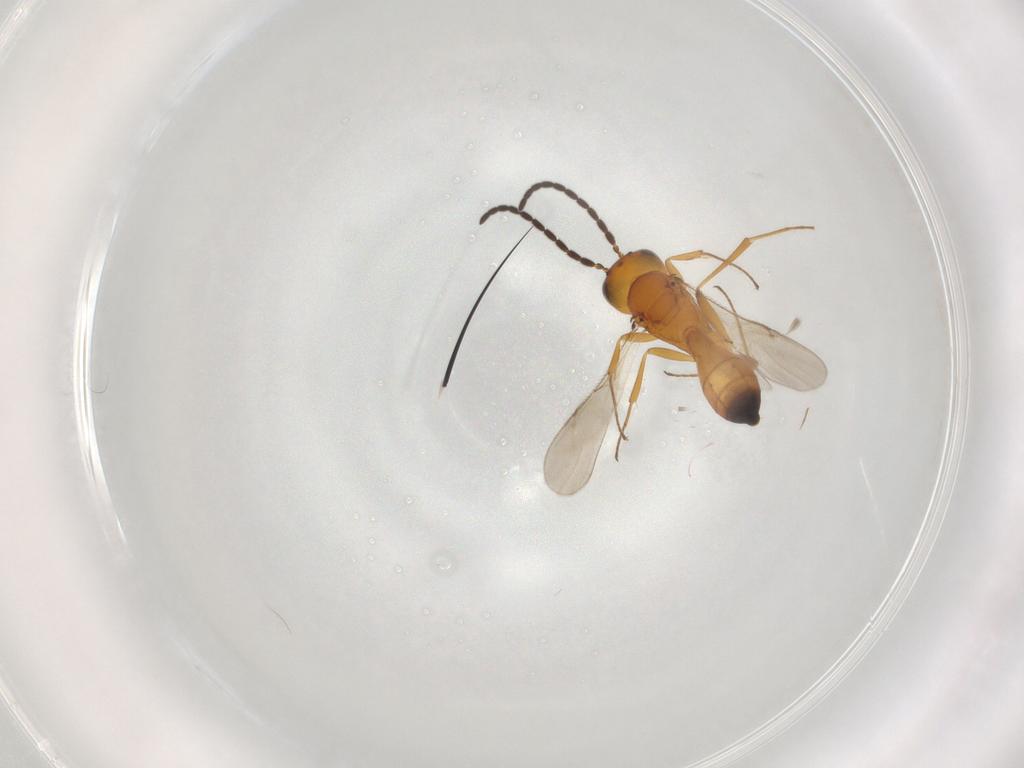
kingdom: Animalia
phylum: Arthropoda
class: Insecta
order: Hymenoptera
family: Scelionidae
